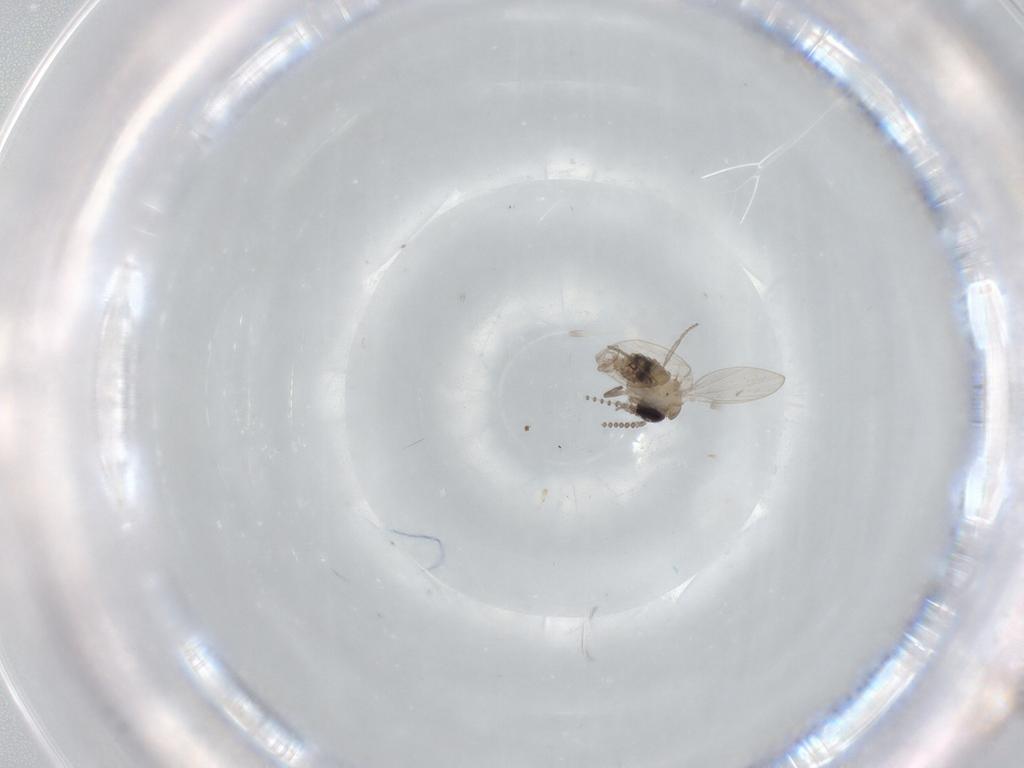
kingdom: Animalia
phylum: Arthropoda
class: Insecta
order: Diptera
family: Psychodidae
